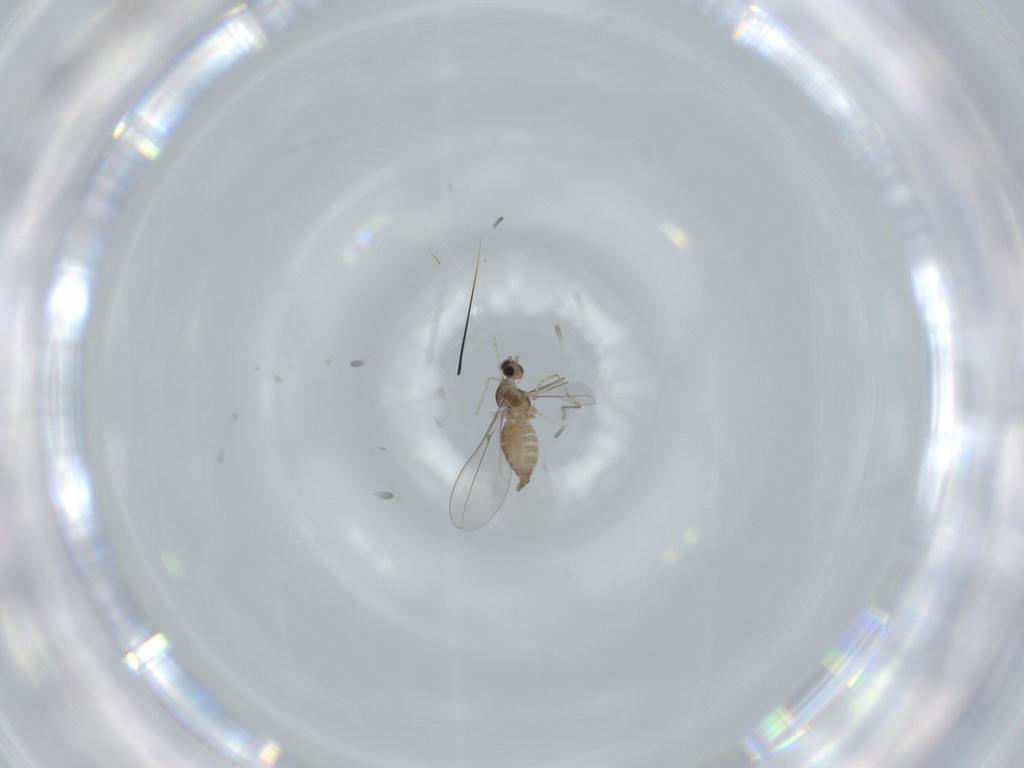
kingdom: Animalia
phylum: Arthropoda
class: Insecta
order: Diptera
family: Cecidomyiidae
